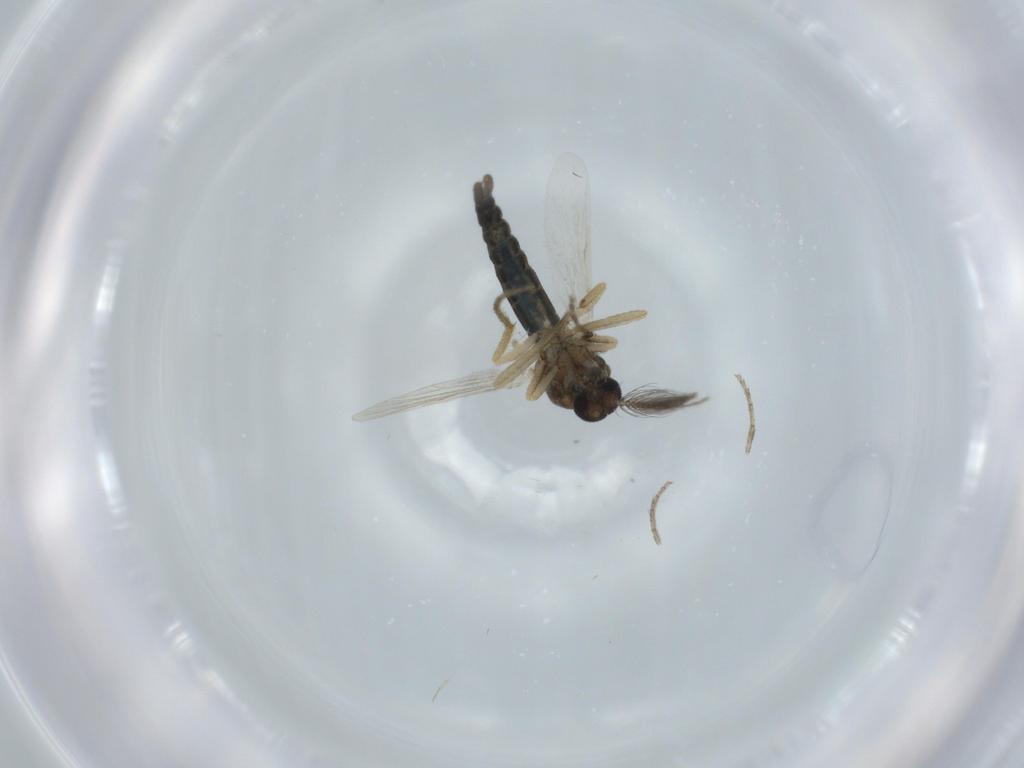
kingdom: Animalia
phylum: Arthropoda
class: Insecta
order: Diptera
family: Ceratopogonidae
